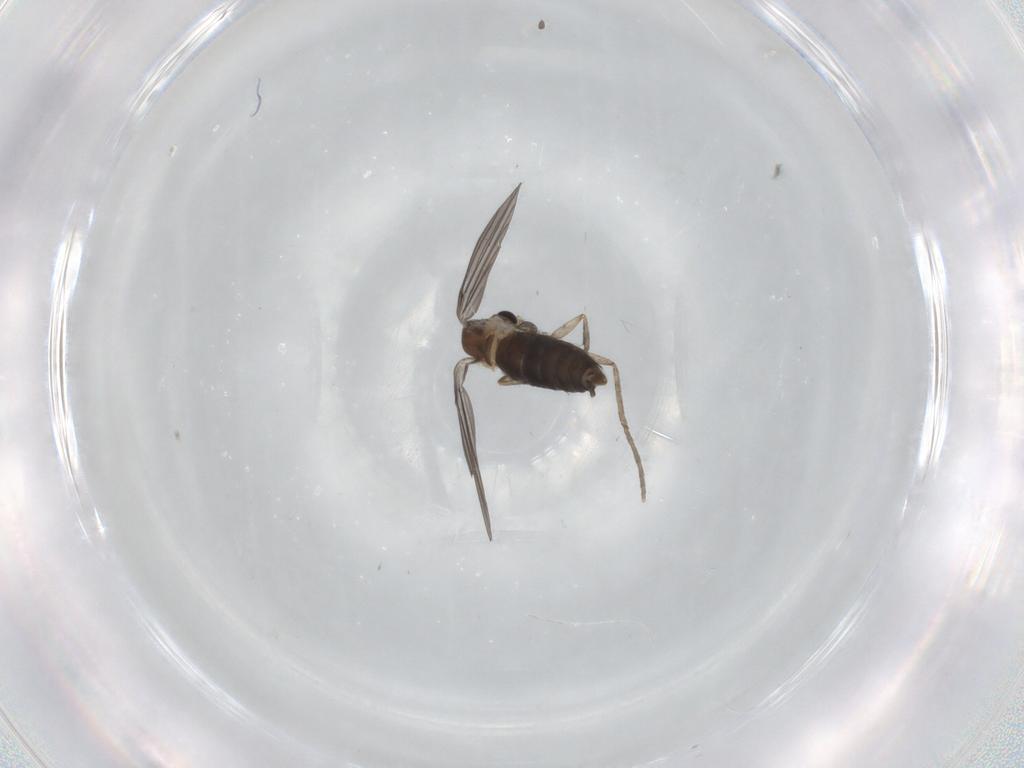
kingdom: Animalia
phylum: Arthropoda
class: Insecta
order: Diptera
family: Psychodidae
